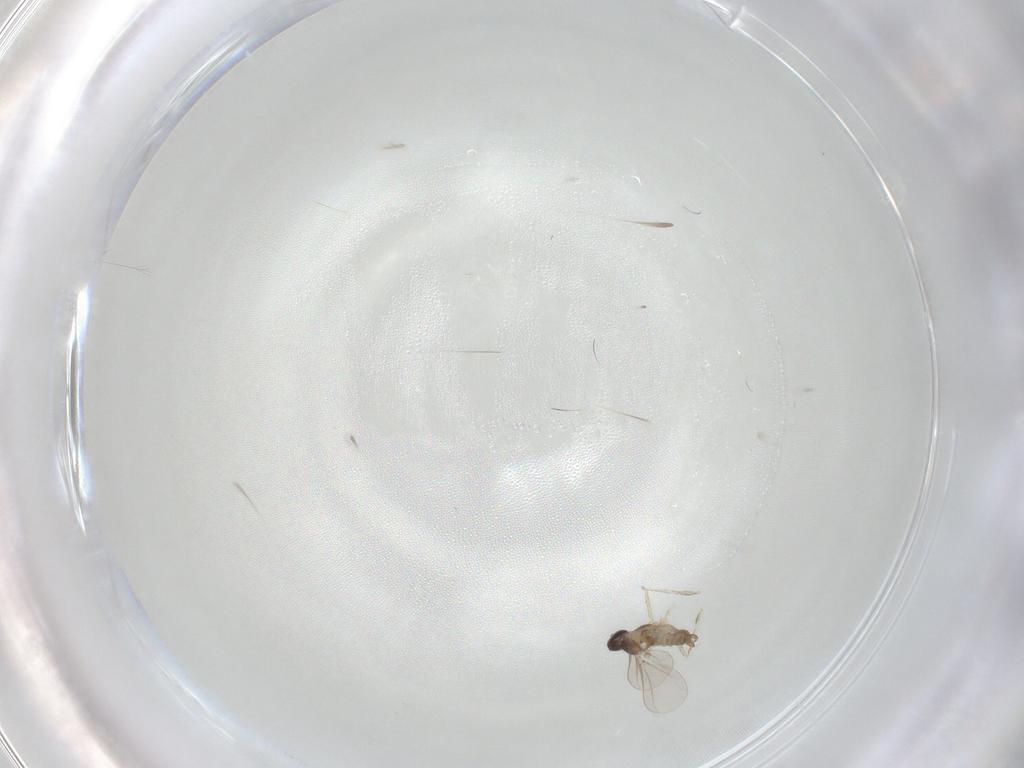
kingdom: Animalia
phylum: Arthropoda
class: Insecta
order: Diptera
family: Cecidomyiidae
